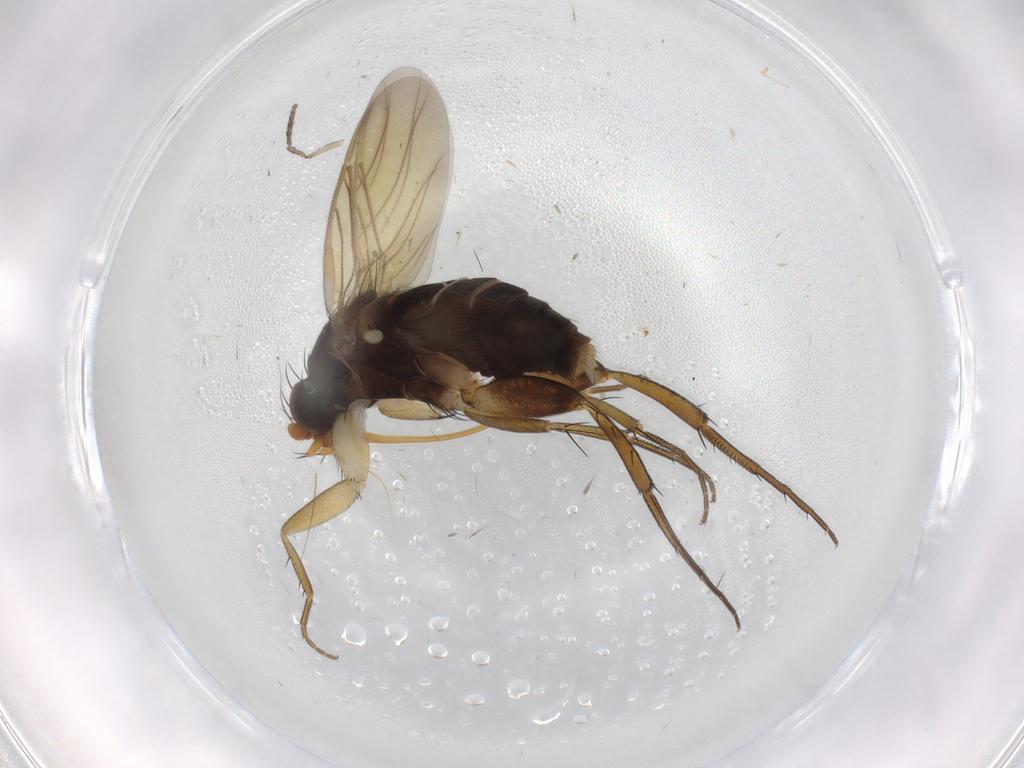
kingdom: Animalia
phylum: Arthropoda
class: Insecta
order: Diptera
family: Phoridae
